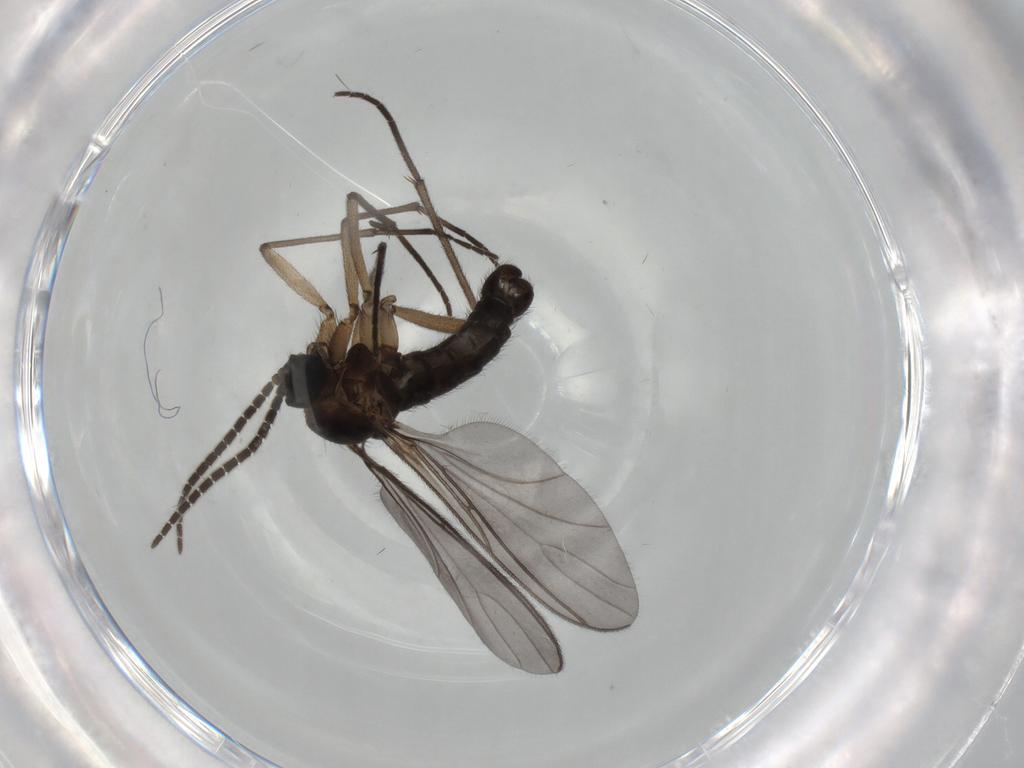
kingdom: Animalia
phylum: Arthropoda
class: Insecta
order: Diptera
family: Sciaridae
